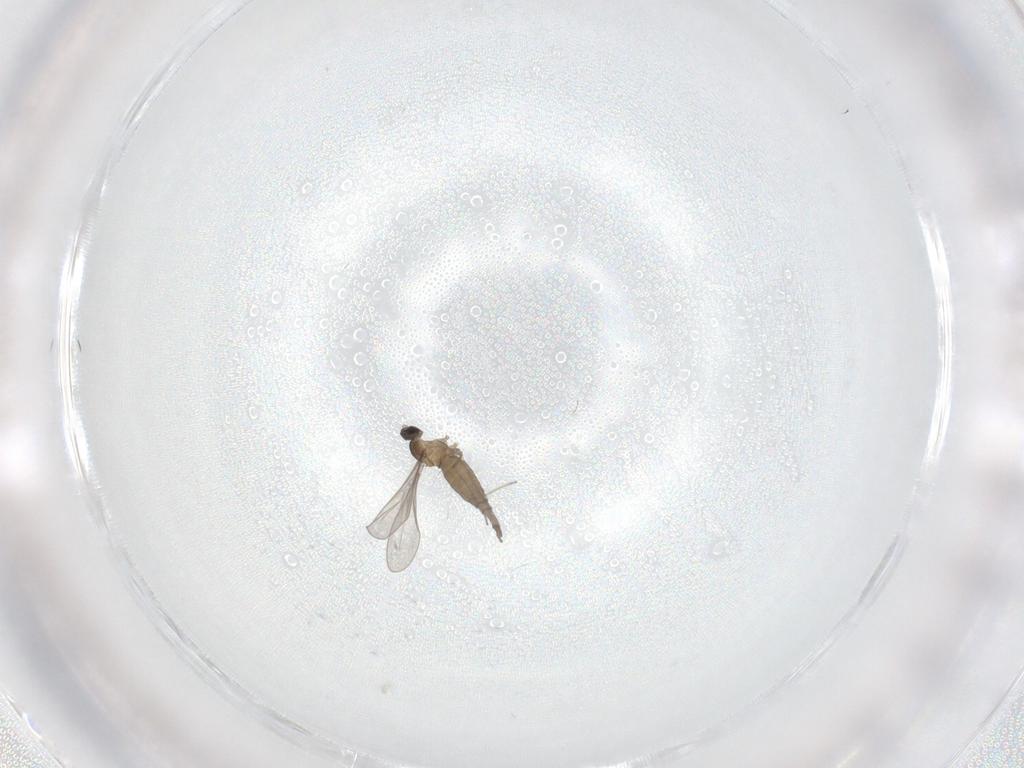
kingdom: Animalia
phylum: Arthropoda
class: Insecta
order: Diptera
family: Cecidomyiidae
